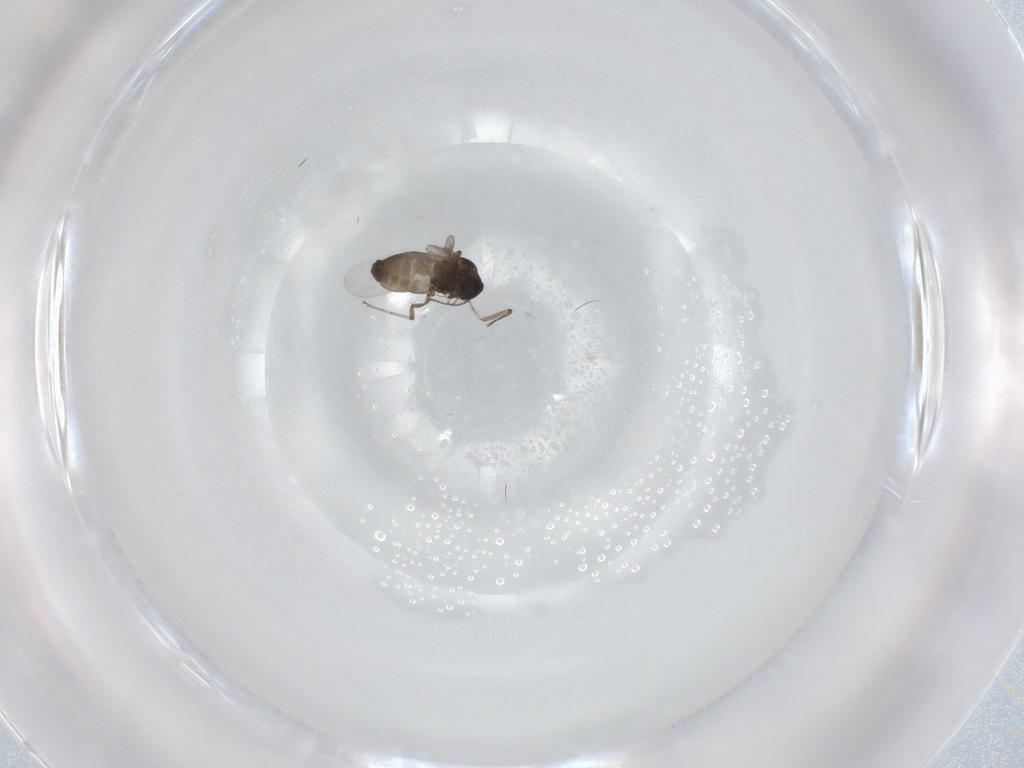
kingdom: Animalia
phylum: Arthropoda
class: Insecta
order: Diptera
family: Ceratopogonidae
